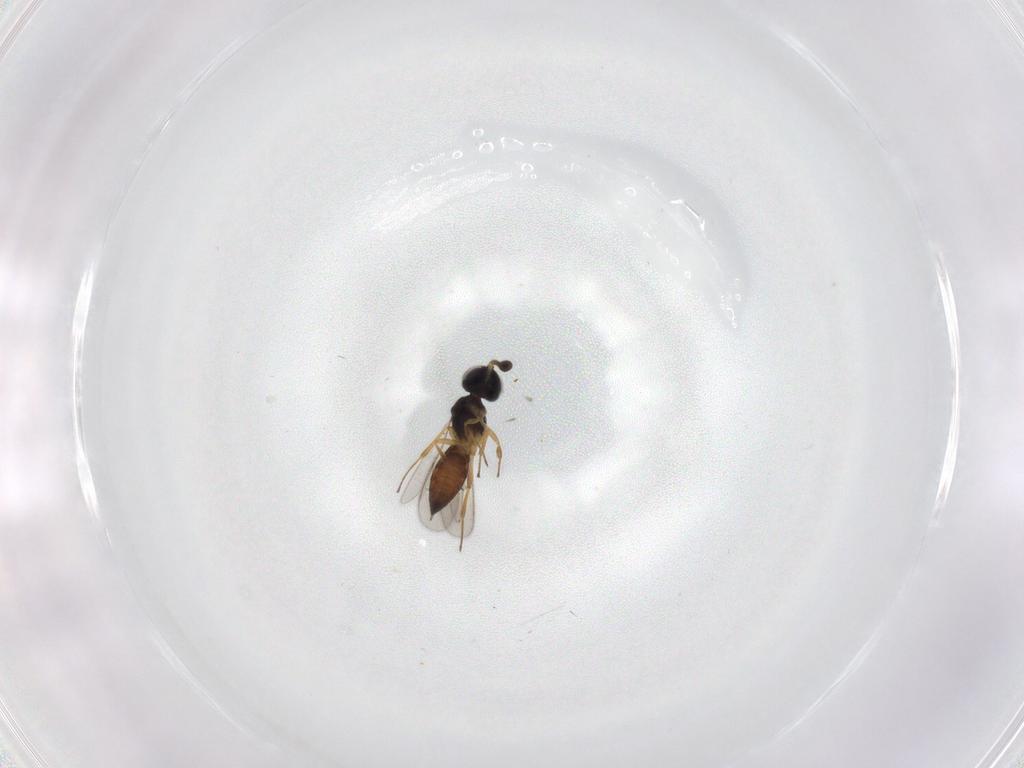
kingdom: Animalia
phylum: Arthropoda
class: Insecta
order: Hymenoptera
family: Scelionidae
